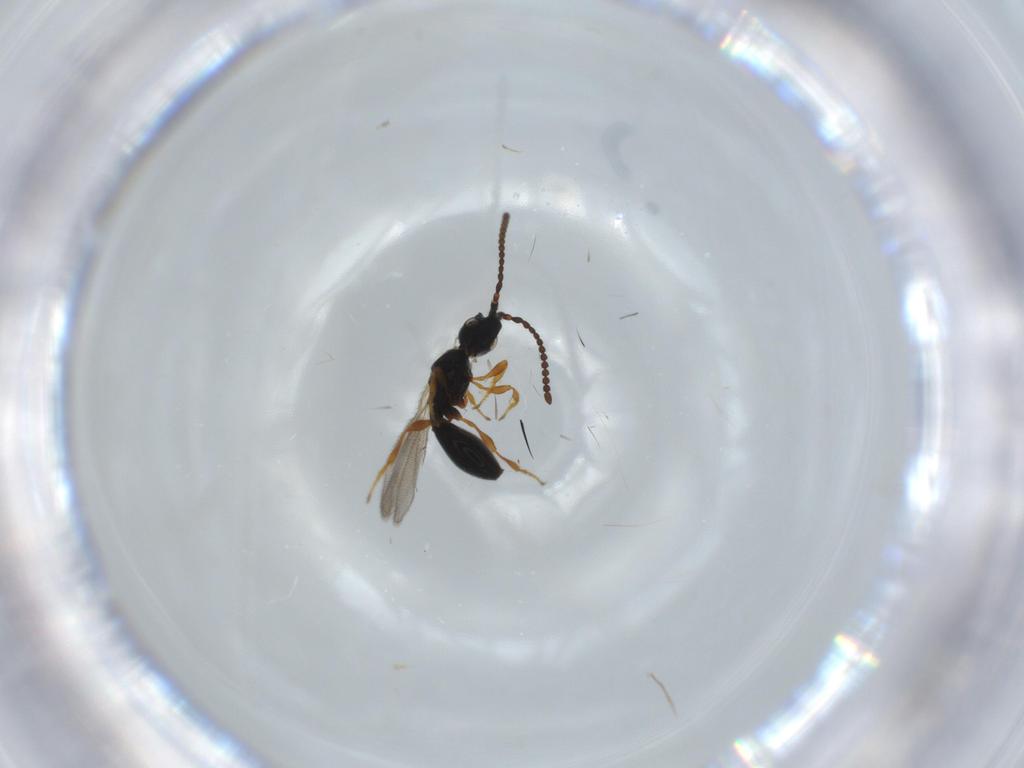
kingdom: Animalia
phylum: Arthropoda
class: Insecta
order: Hymenoptera
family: Diapriidae
